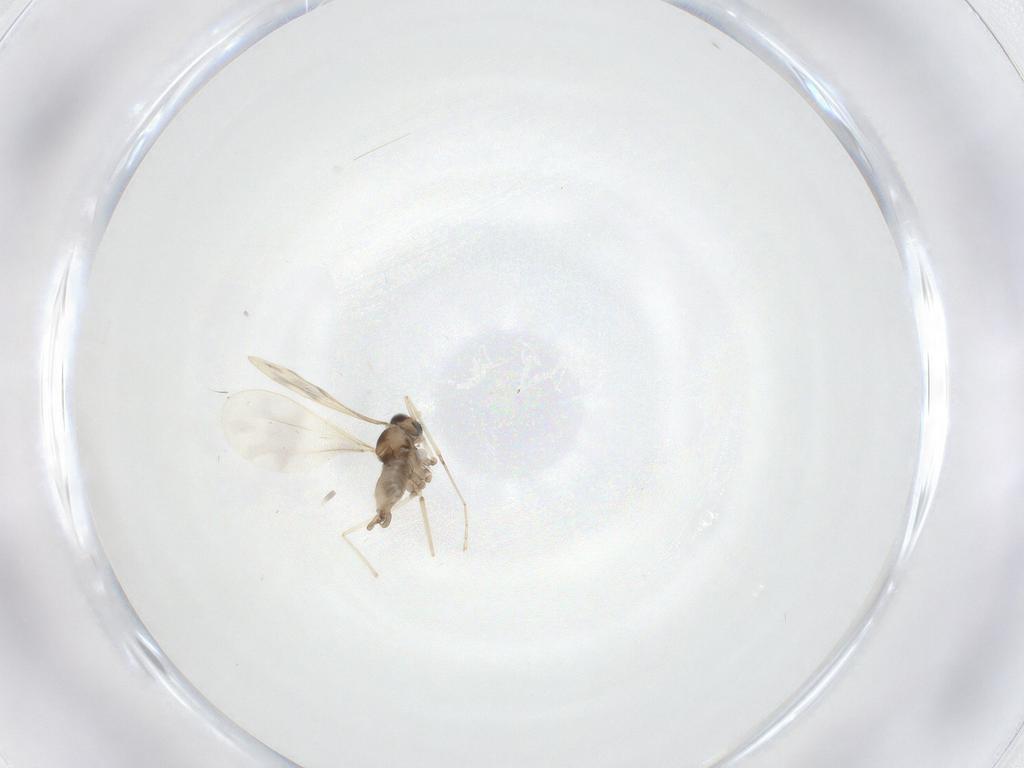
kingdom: Animalia
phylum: Arthropoda
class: Insecta
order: Diptera
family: Cecidomyiidae
